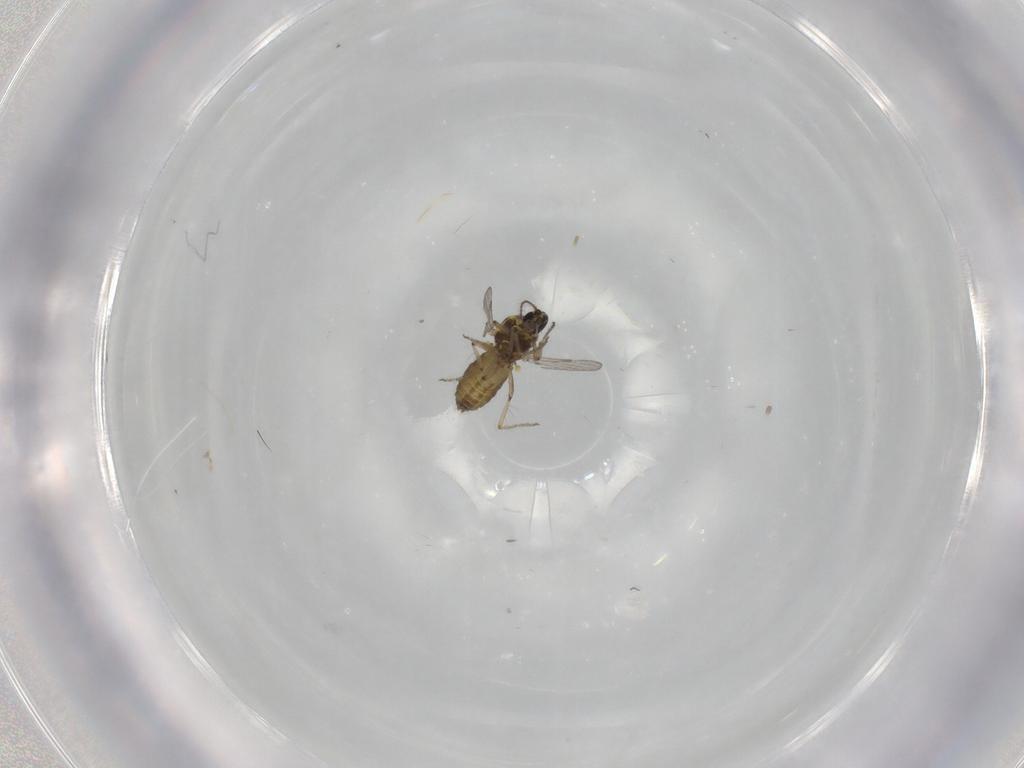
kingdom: Animalia
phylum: Arthropoda
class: Insecta
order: Diptera
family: Ceratopogonidae
